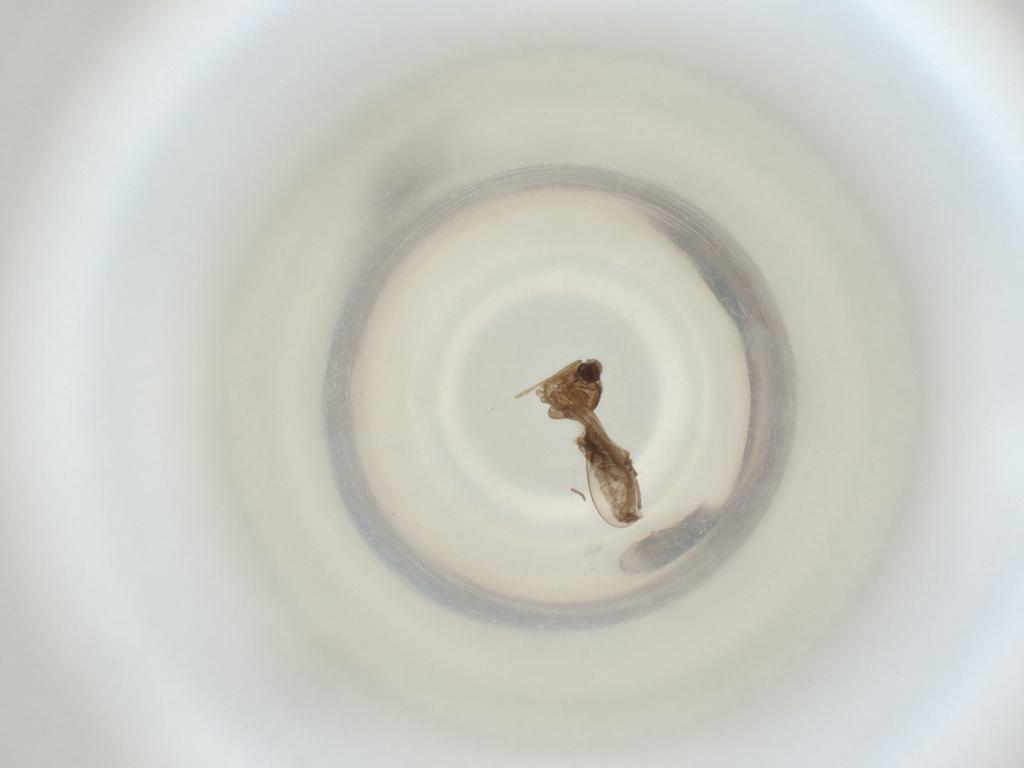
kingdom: Animalia
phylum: Arthropoda
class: Insecta
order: Diptera
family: Cecidomyiidae
